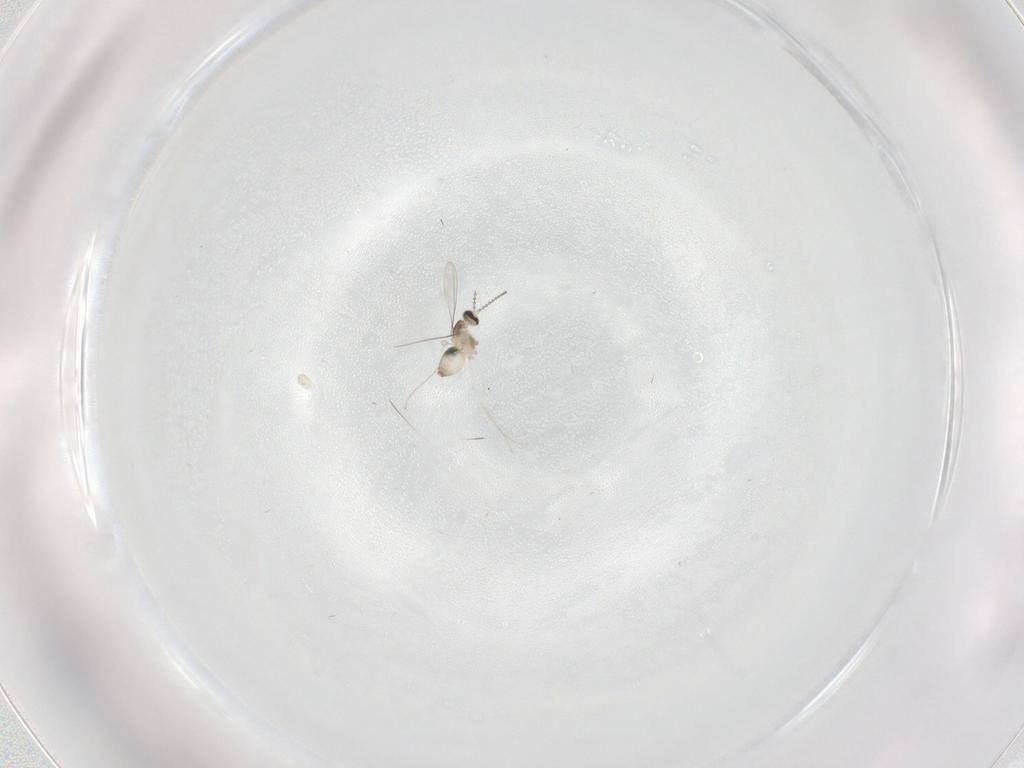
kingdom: Animalia
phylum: Arthropoda
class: Insecta
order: Diptera
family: Cecidomyiidae
